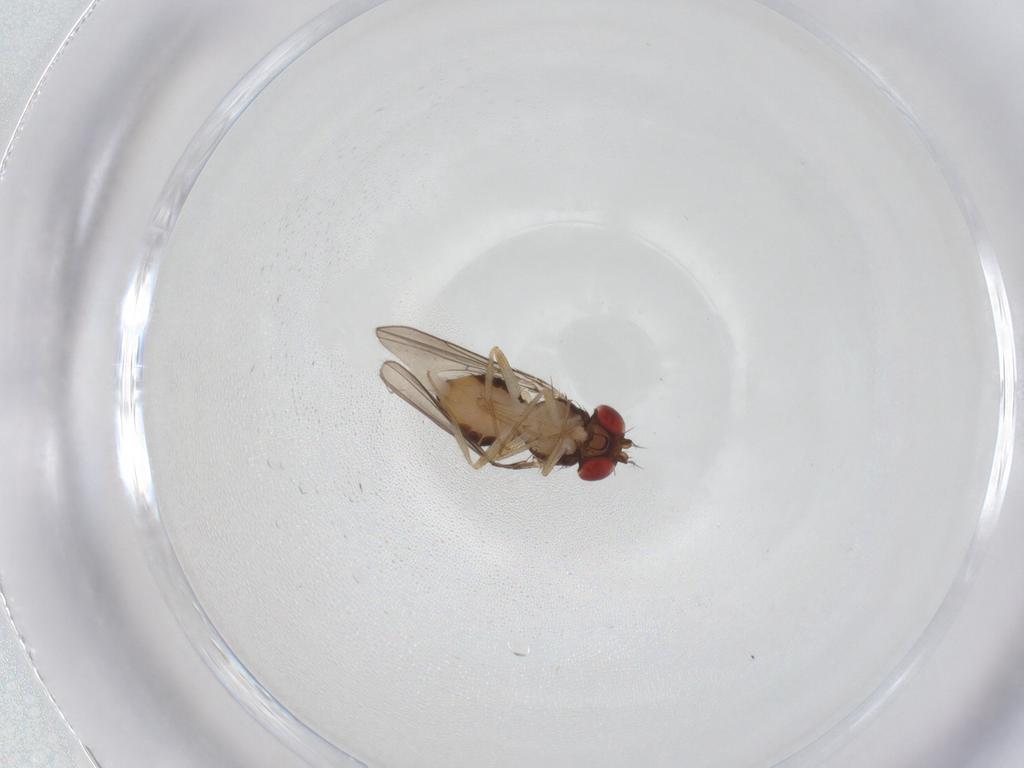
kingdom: Animalia
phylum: Arthropoda
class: Insecta
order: Diptera
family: Drosophilidae
